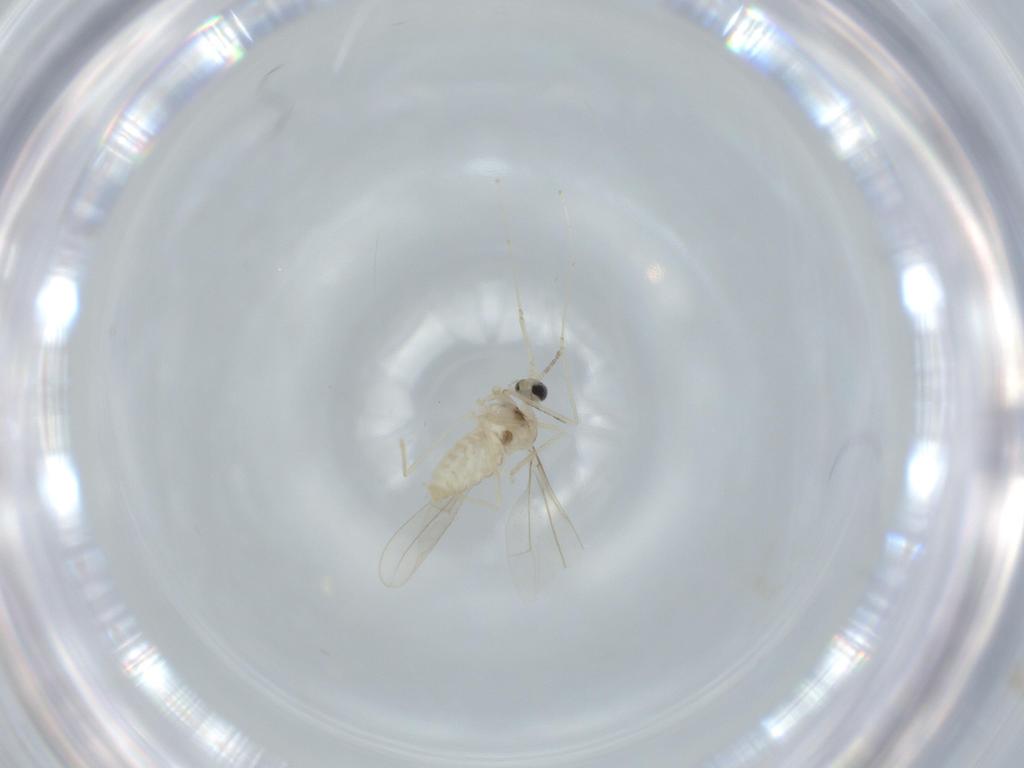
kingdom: Animalia
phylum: Arthropoda
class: Insecta
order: Diptera
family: Cecidomyiidae
